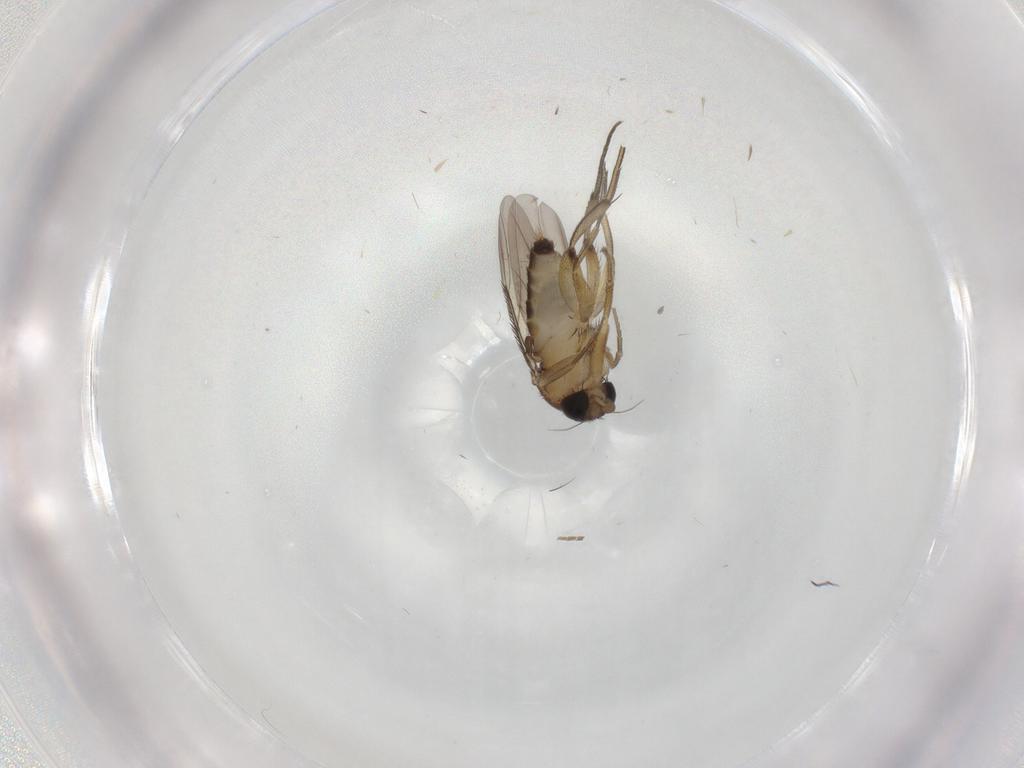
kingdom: Animalia
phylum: Arthropoda
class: Insecta
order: Diptera
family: Phoridae
